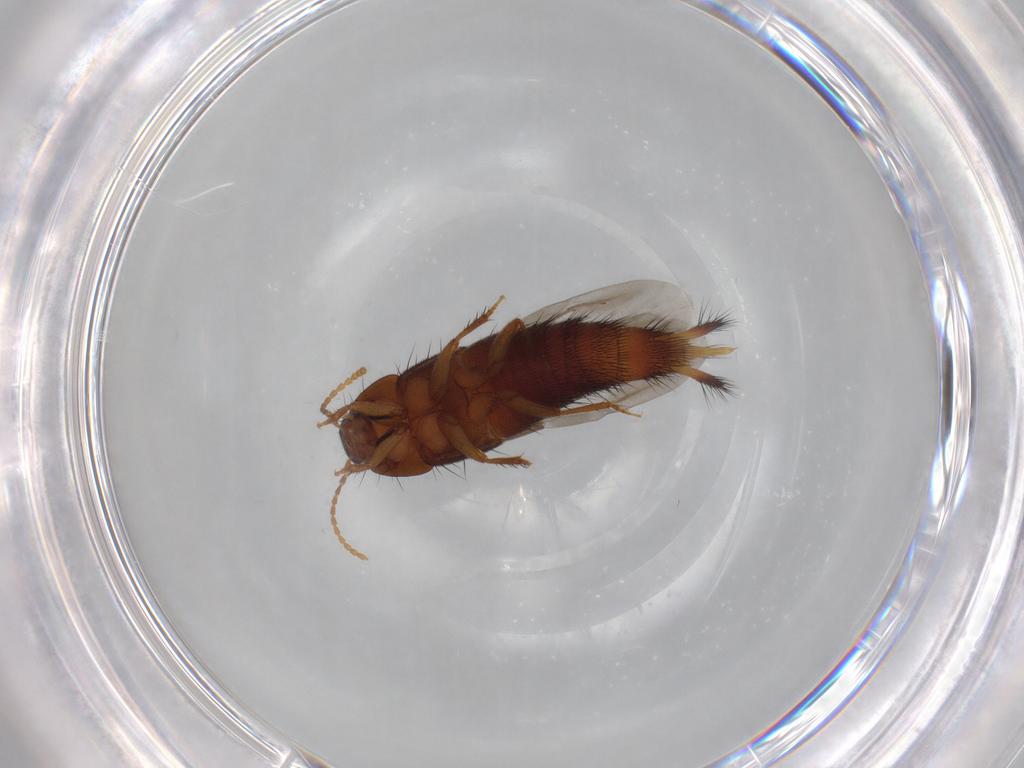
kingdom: Animalia
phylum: Arthropoda
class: Insecta
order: Coleoptera
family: Staphylinidae
